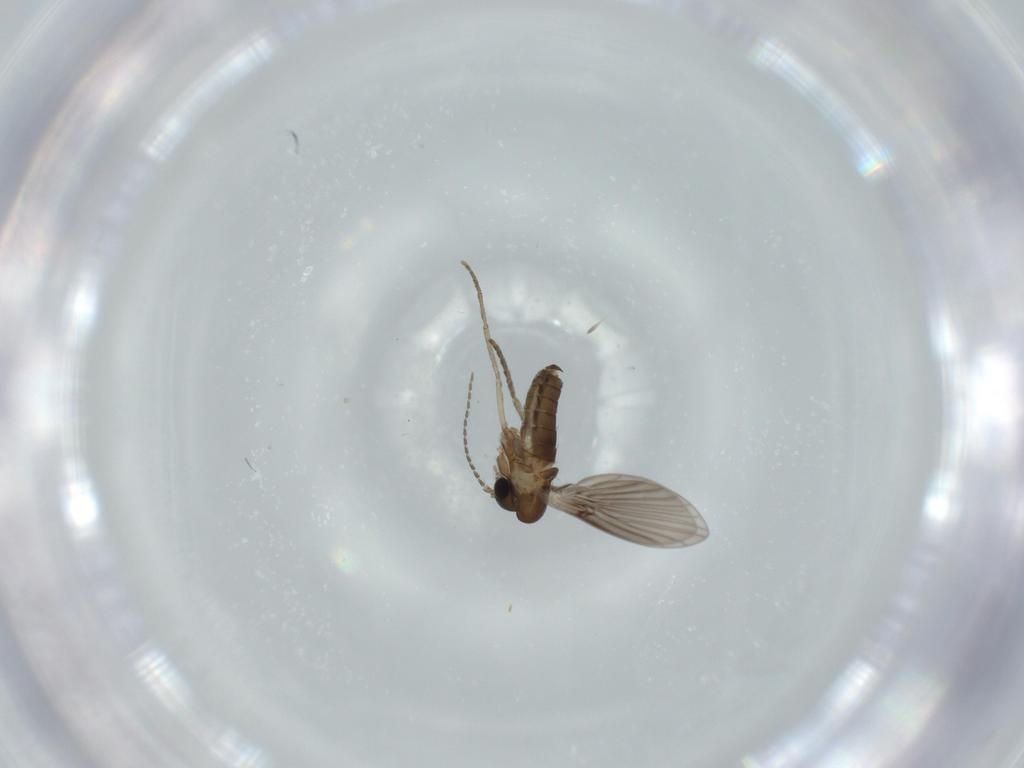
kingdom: Animalia
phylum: Arthropoda
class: Insecta
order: Diptera
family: Psychodidae
